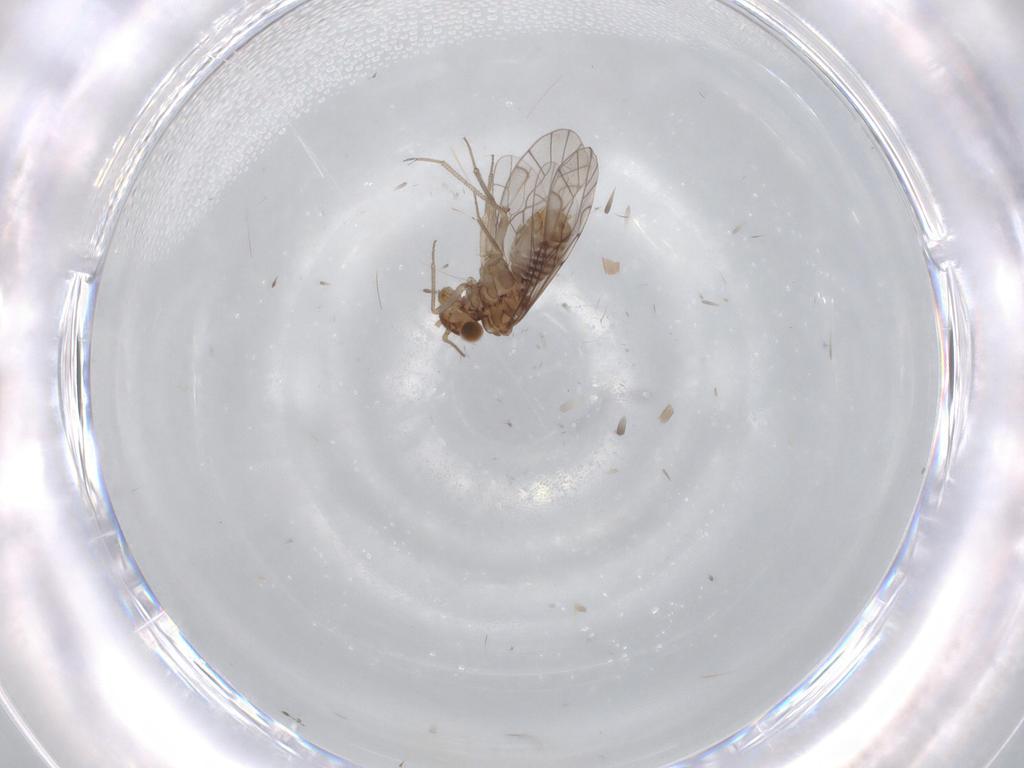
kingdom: Animalia
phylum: Arthropoda
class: Insecta
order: Psocodea
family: Lachesillidae
